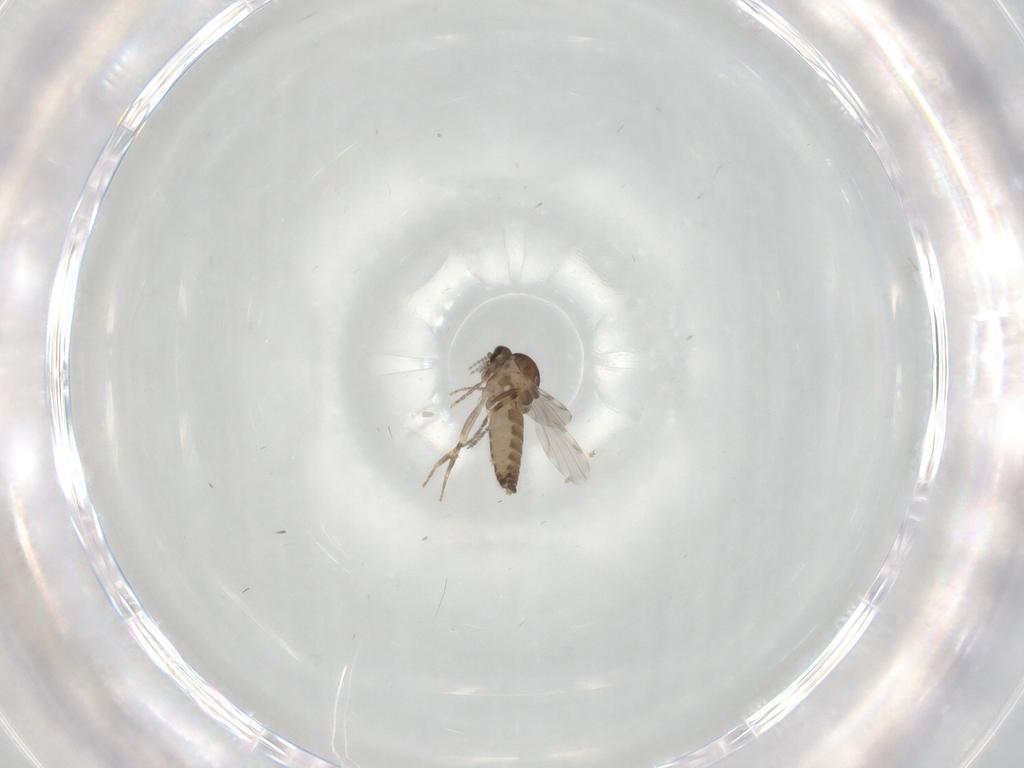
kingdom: Animalia
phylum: Arthropoda
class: Insecta
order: Diptera
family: Ceratopogonidae
